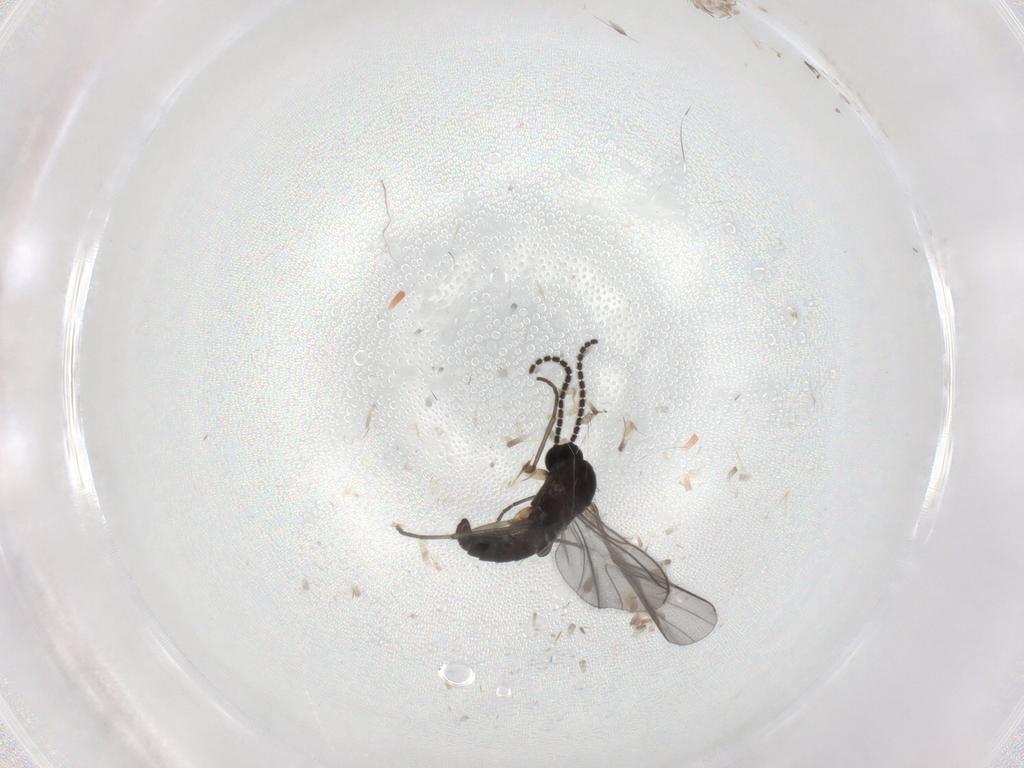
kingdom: Animalia
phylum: Arthropoda
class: Insecta
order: Diptera
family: Sciaridae
